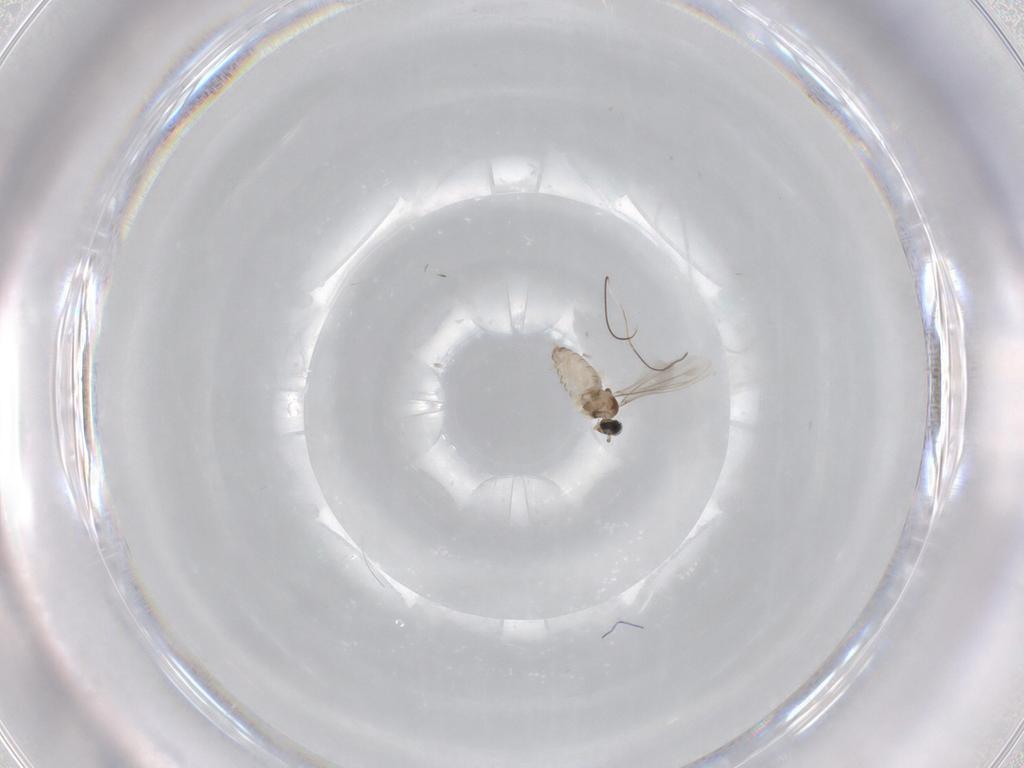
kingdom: Animalia
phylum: Arthropoda
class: Insecta
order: Diptera
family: Cecidomyiidae
